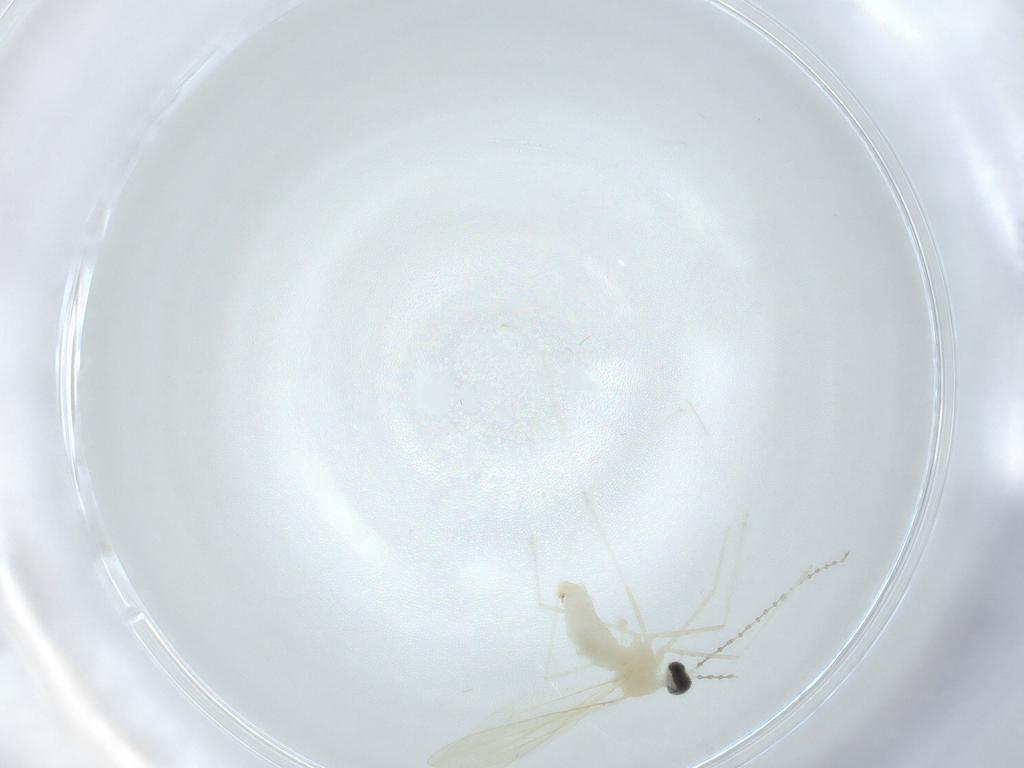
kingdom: Animalia
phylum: Arthropoda
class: Insecta
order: Diptera
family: Cecidomyiidae
